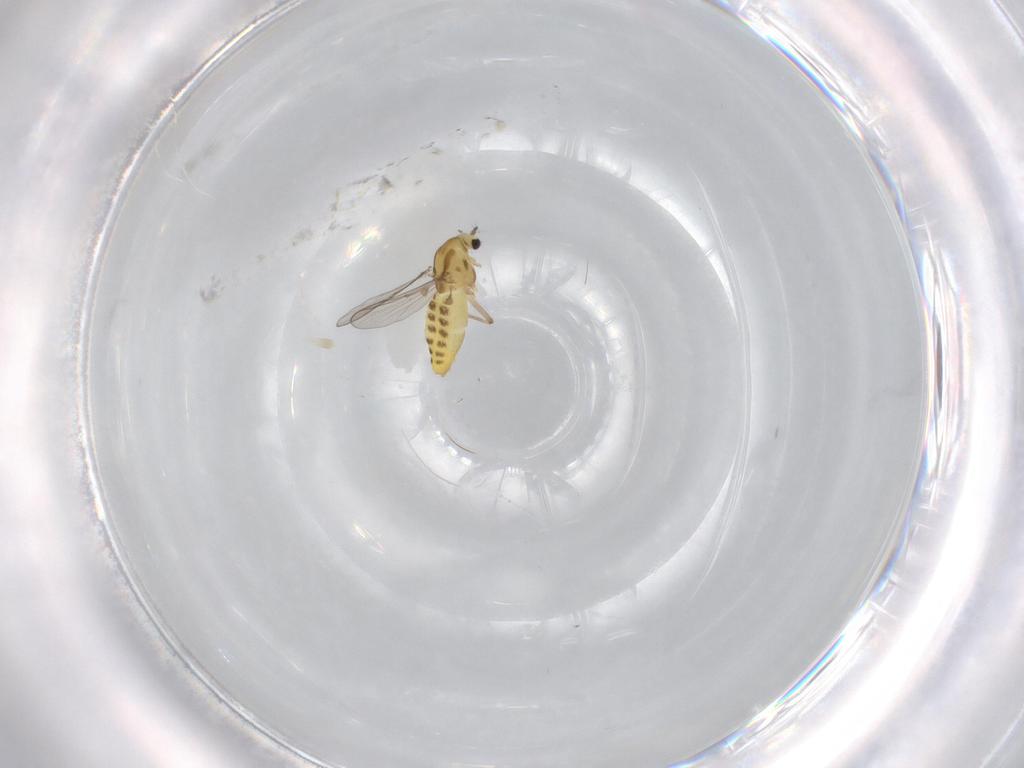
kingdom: Animalia
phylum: Arthropoda
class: Insecta
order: Diptera
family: Chironomidae
